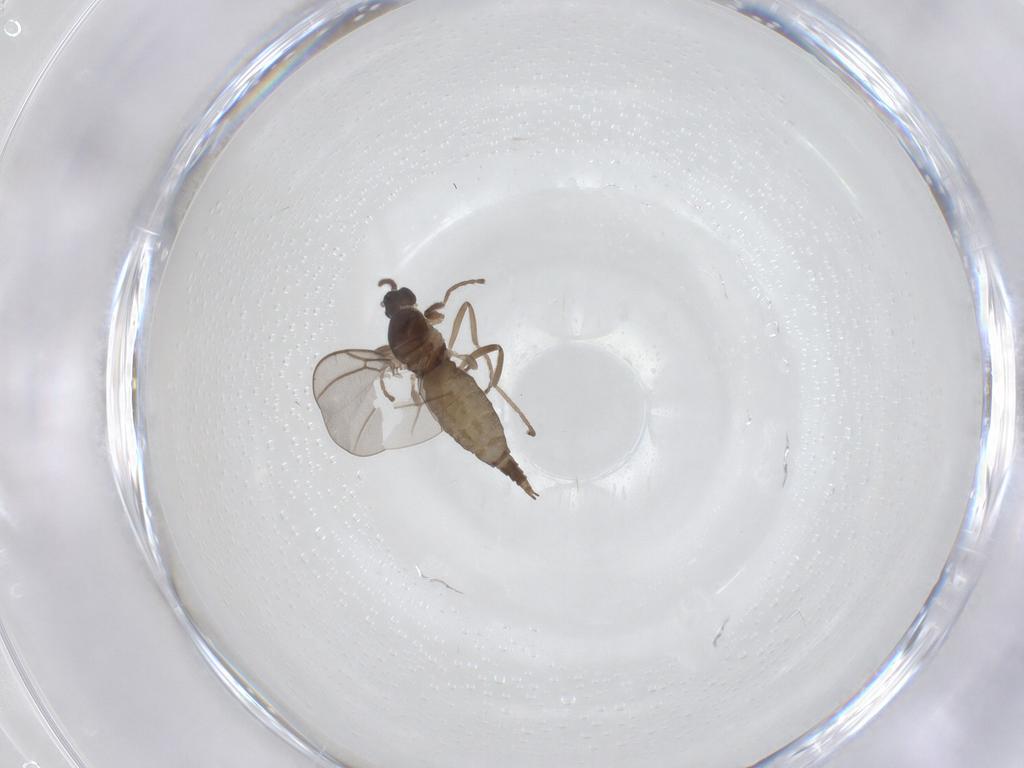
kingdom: Animalia
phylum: Arthropoda
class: Insecta
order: Diptera
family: Cecidomyiidae
